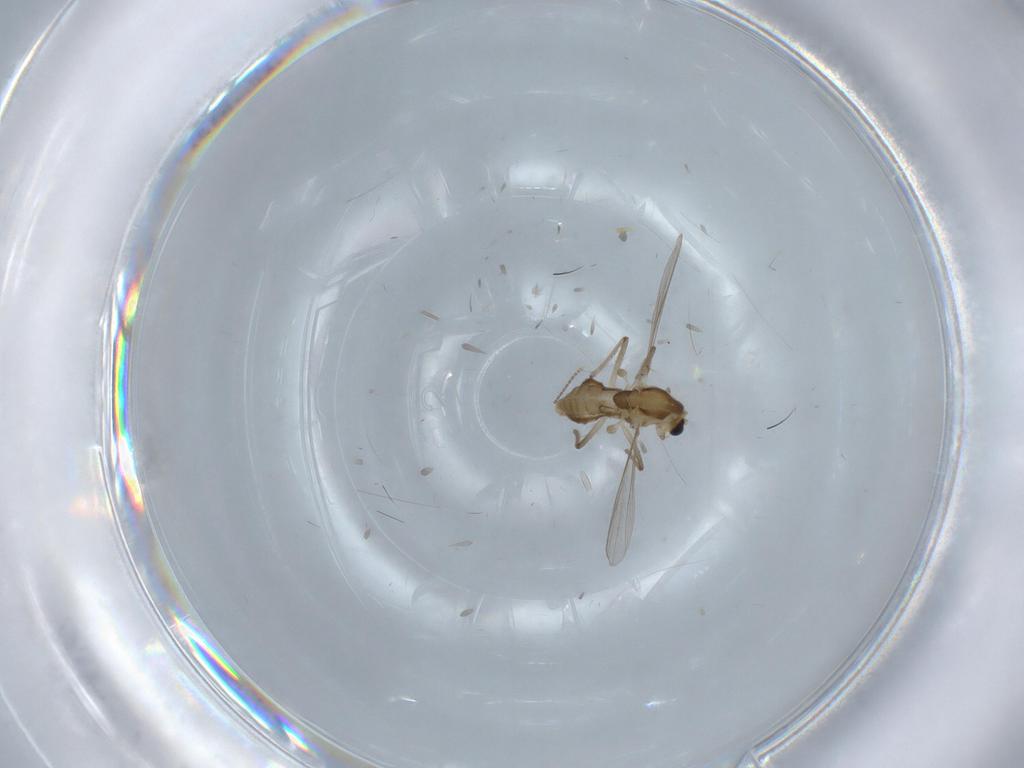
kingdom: Animalia
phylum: Arthropoda
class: Insecta
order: Diptera
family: Chironomidae
